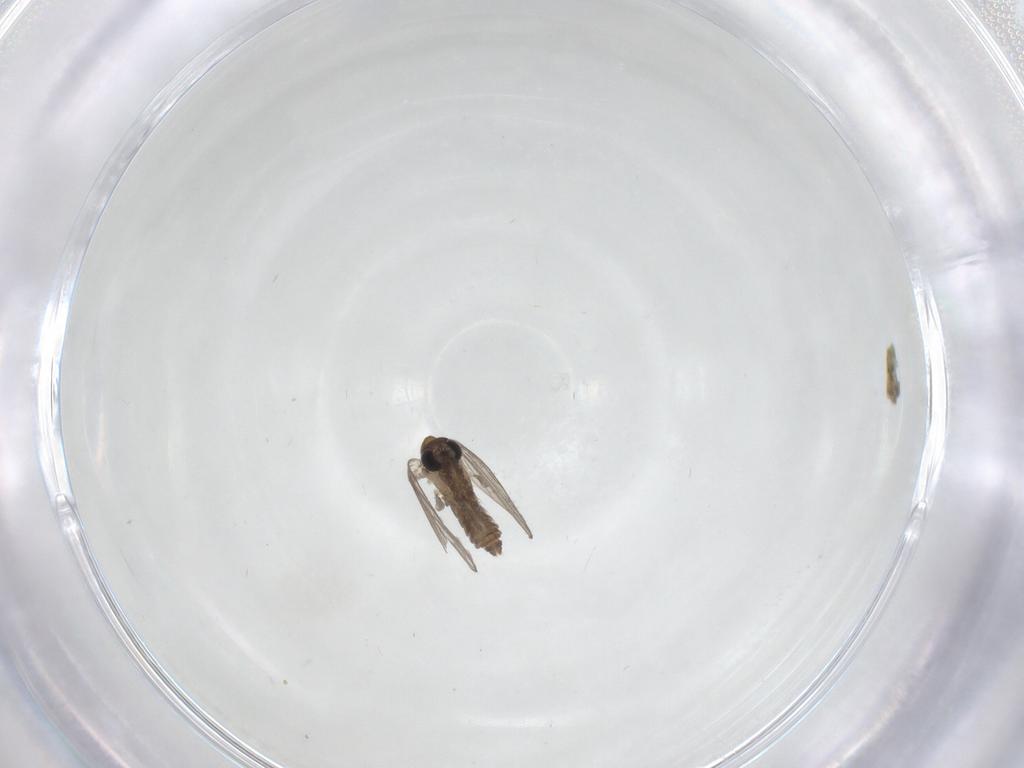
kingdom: Animalia
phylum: Arthropoda
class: Insecta
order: Diptera
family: Psychodidae
